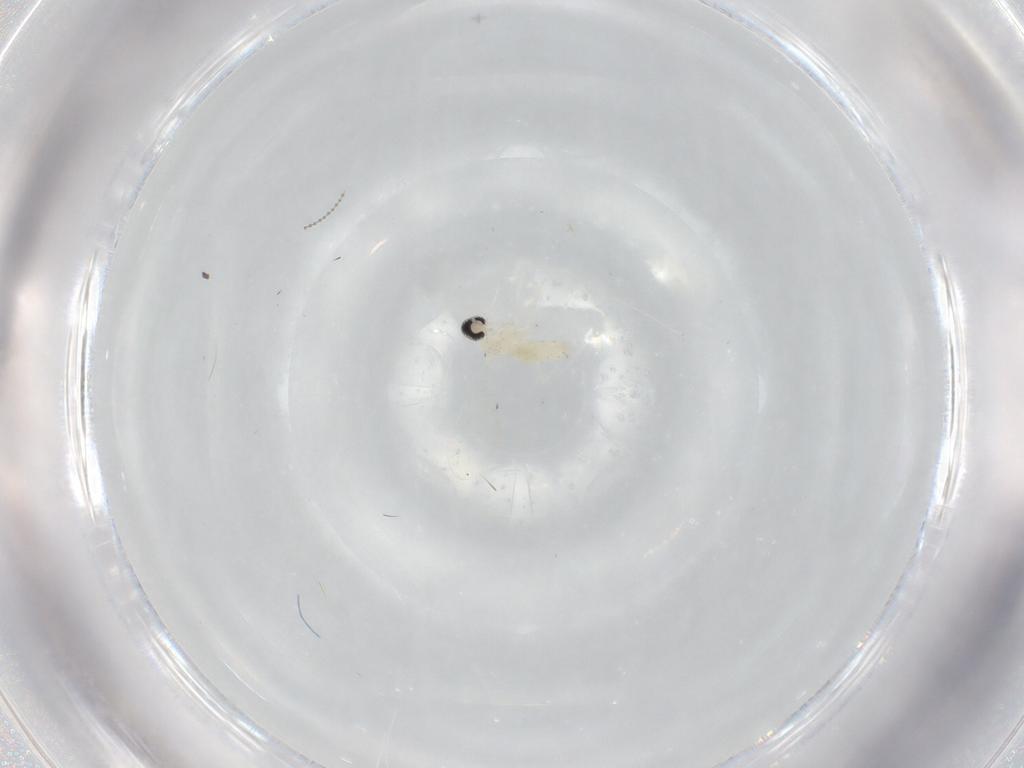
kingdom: Animalia
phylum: Arthropoda
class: Insecta
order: Diptera
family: Cecidomyiidae
